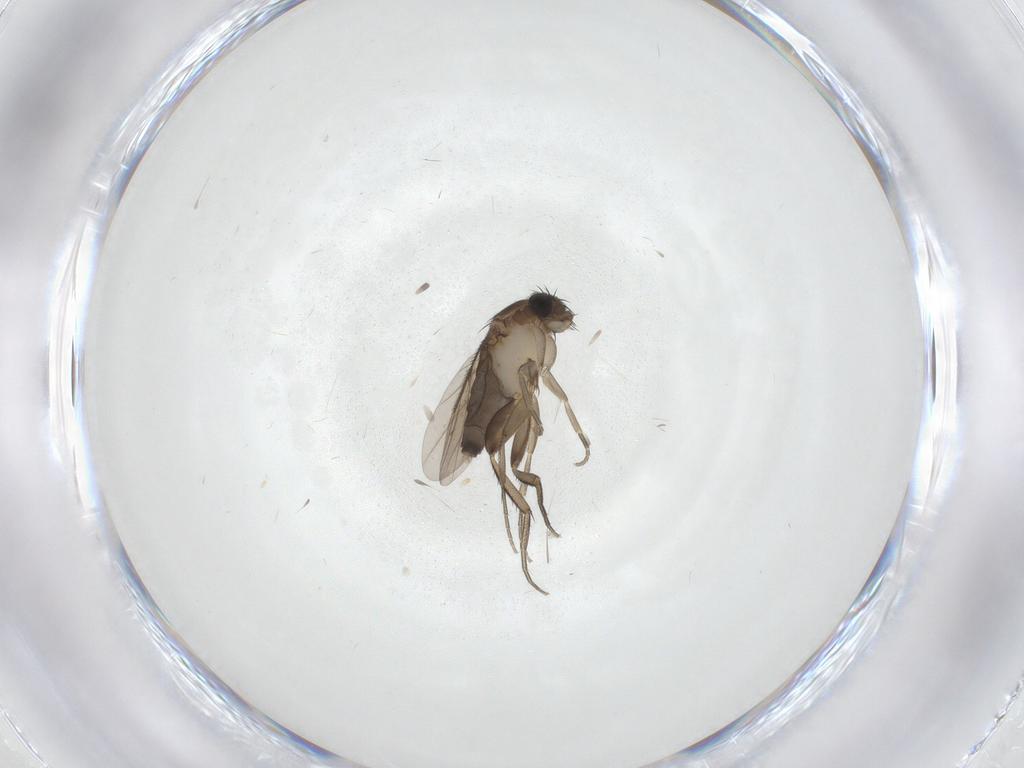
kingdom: Animalia
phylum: Arthropoda
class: Insecta
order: Diptera
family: Phoridae
